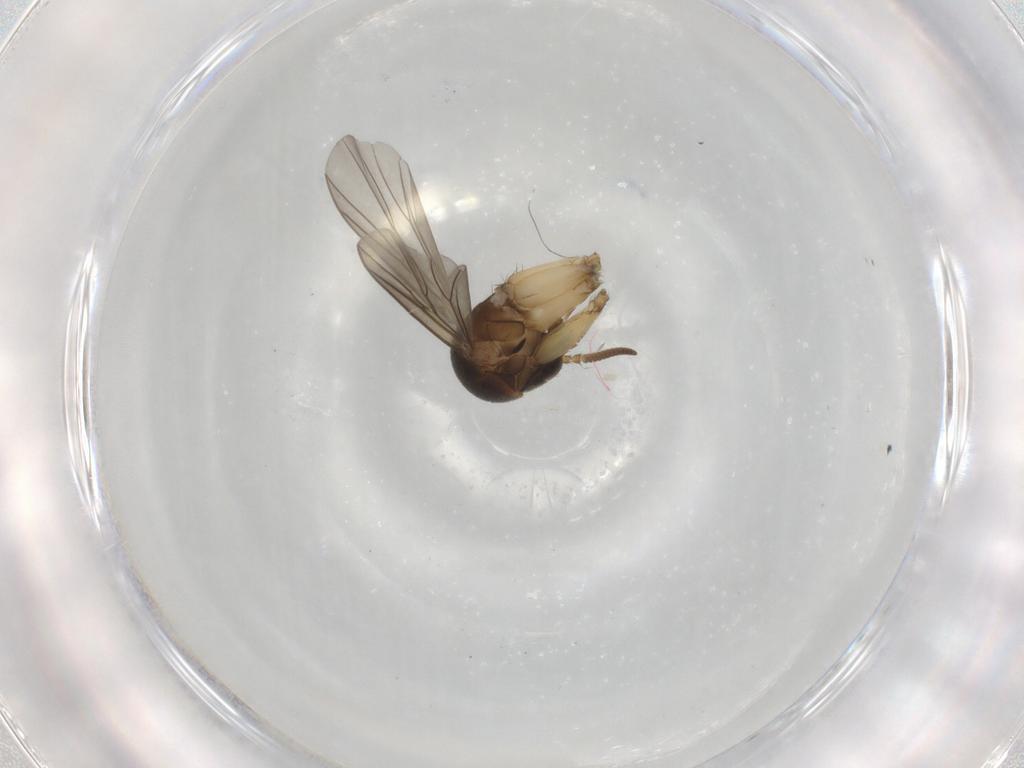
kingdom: Animalia
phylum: Arthropoda
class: Insecta
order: Diptera
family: Mycetophilidae
